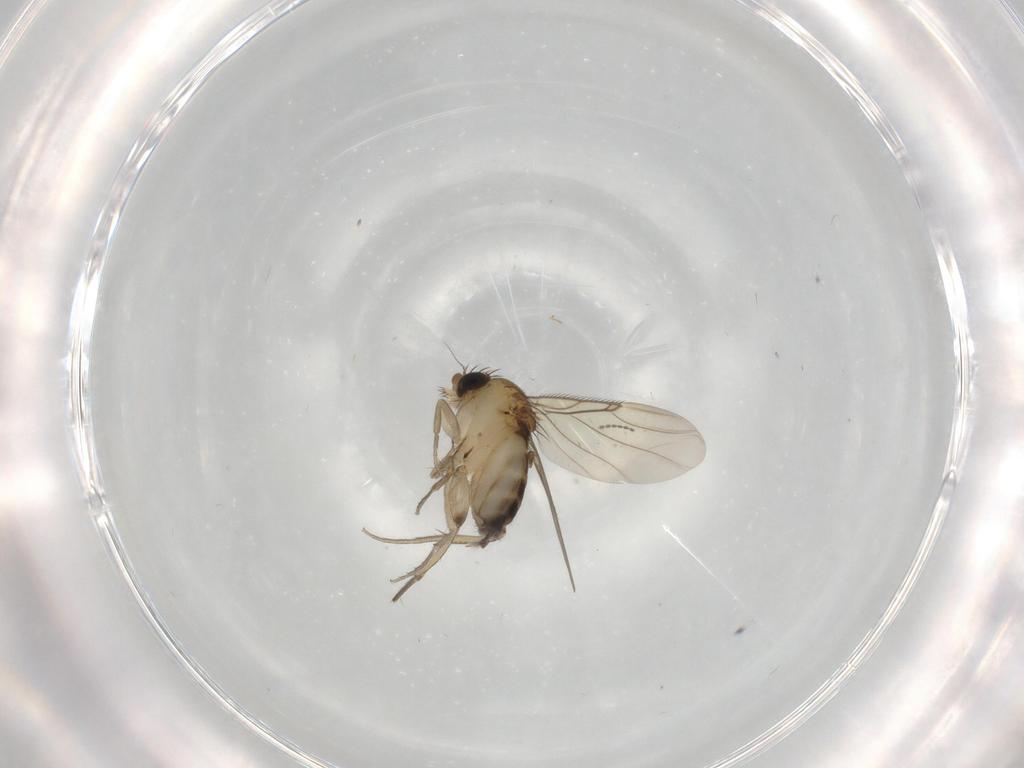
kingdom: Animalia
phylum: Arthropoda
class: Insecta
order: Diptera
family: Phoridae
